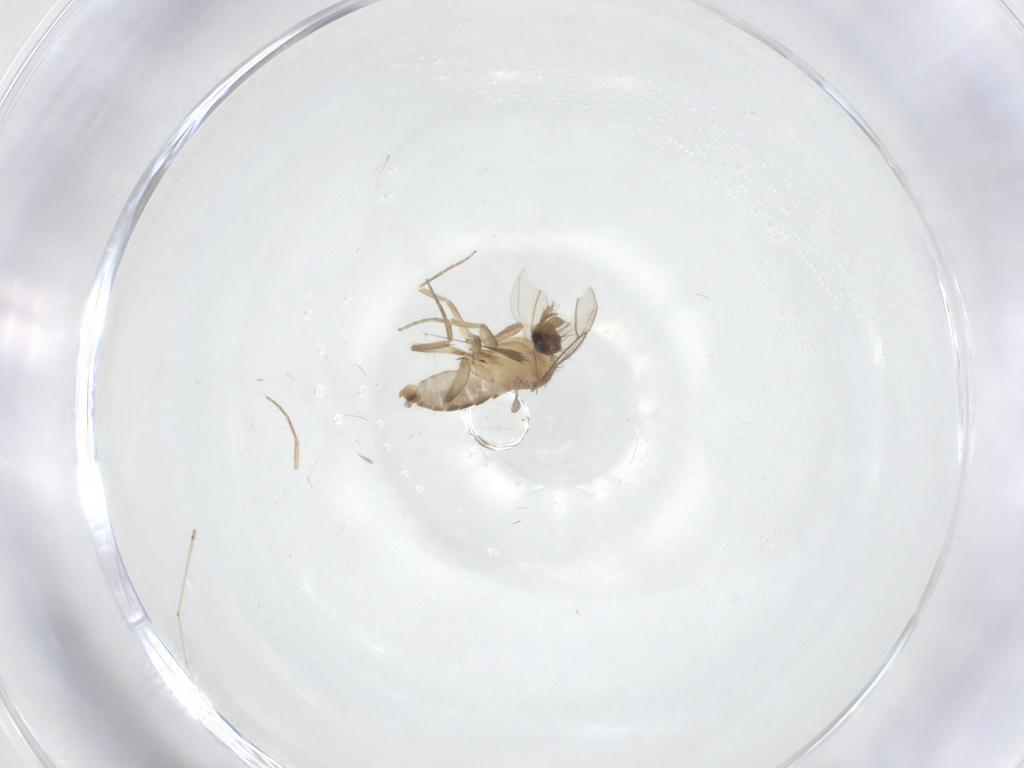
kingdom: Animalia
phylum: Arthropoda
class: Insecta
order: Diptera
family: Phoridae
